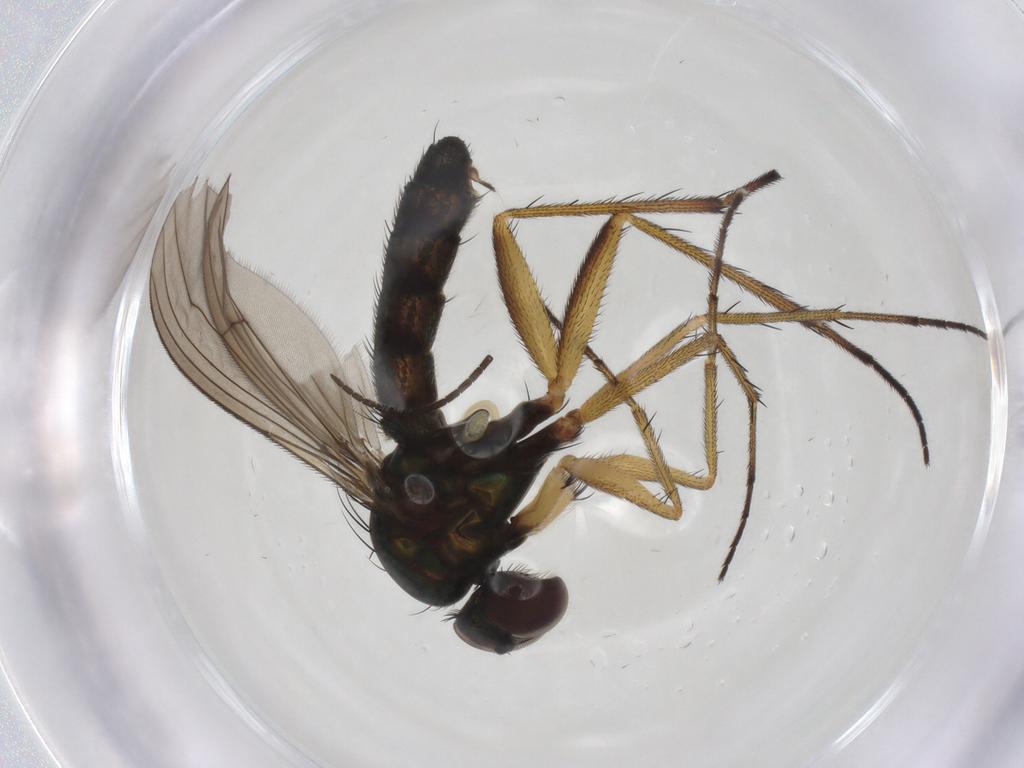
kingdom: Animalia
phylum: Arthropoda
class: Insecta
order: Diptera
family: Dolichopodidae
